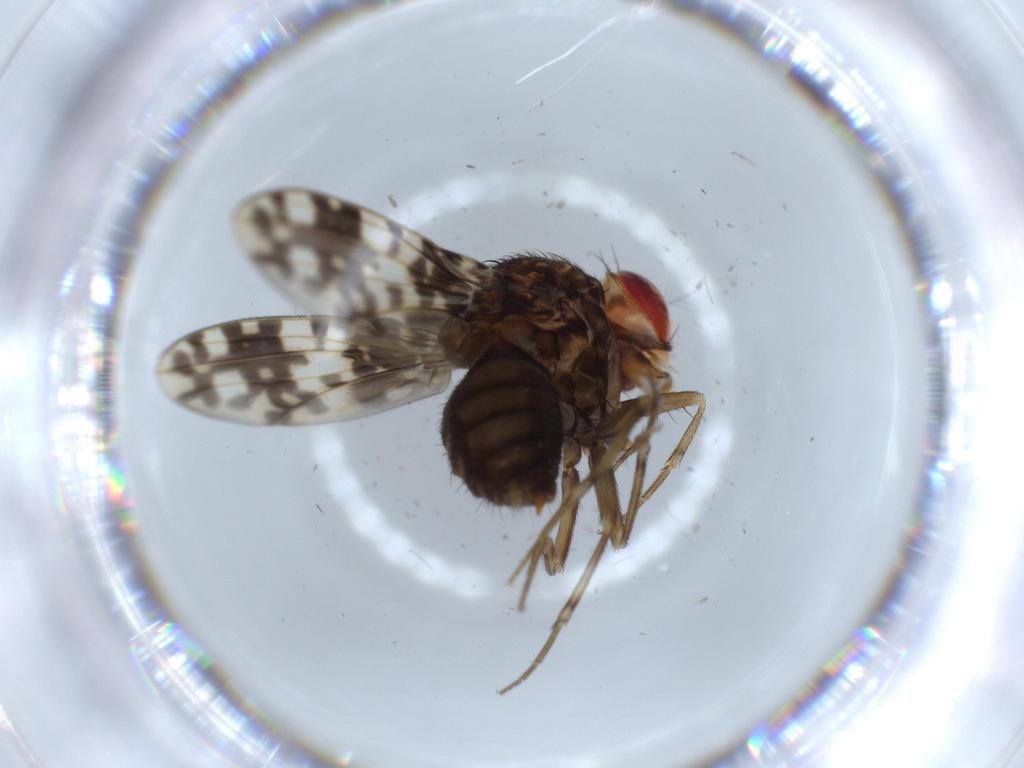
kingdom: Animalia
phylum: Arthropoda
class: Insecta
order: Diptera
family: Drosophilidae
